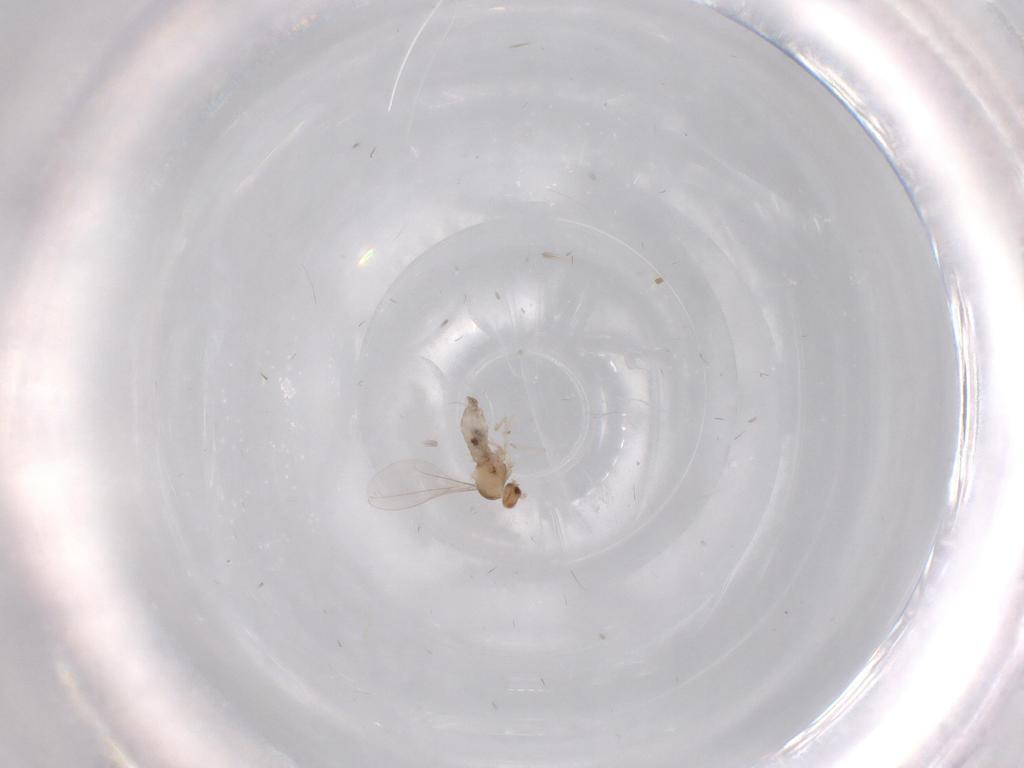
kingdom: Animalia
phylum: Arthropoda
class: Insecta
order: Diptera
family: Cecidomyiidae
